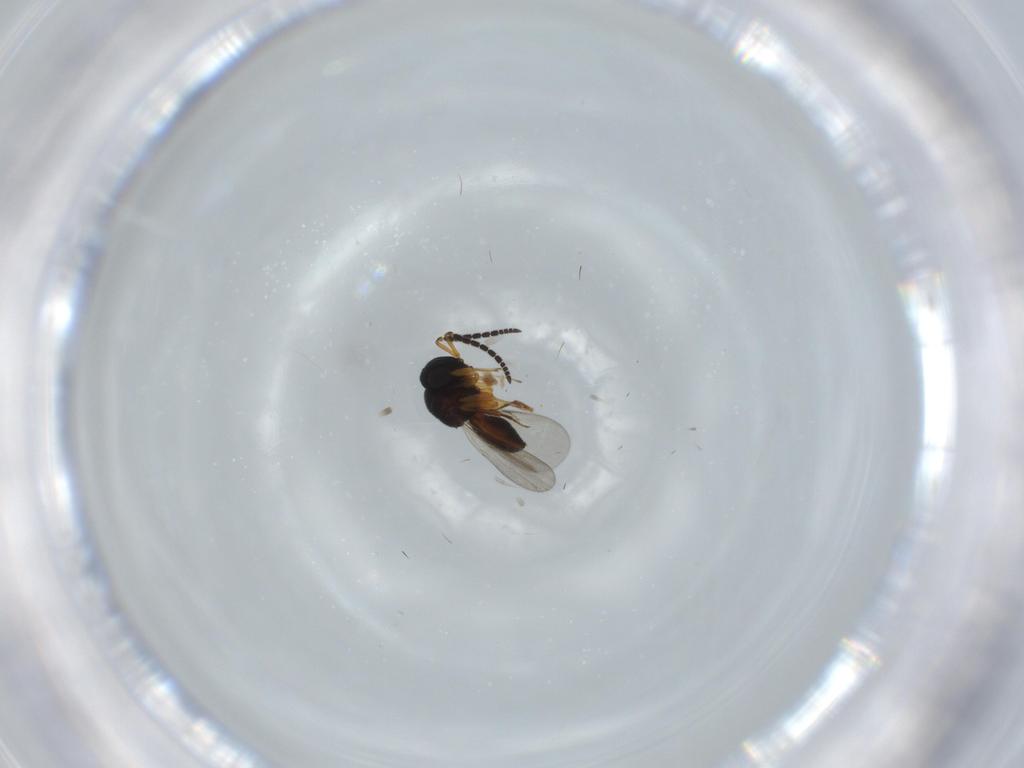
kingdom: Animalia
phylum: Arthropoda
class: Insecta
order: Coleoptera
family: Curculionidae
